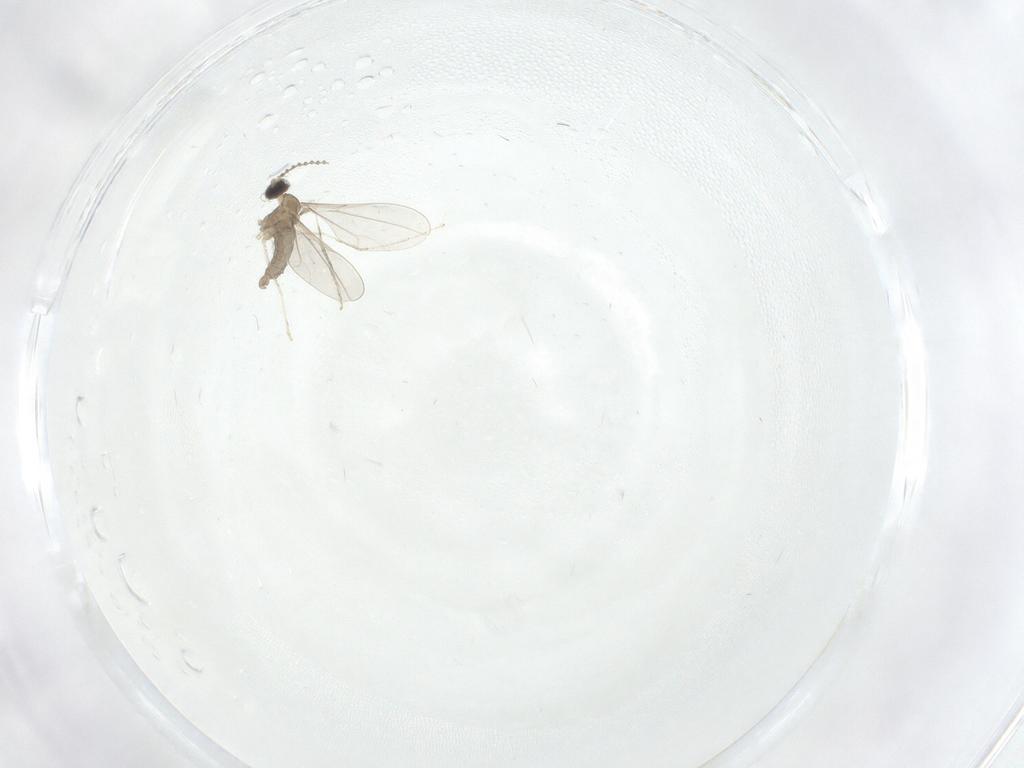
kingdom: Animalia
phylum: Arthropoda
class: Insecta
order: Diptera
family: Cecidomyiidae
